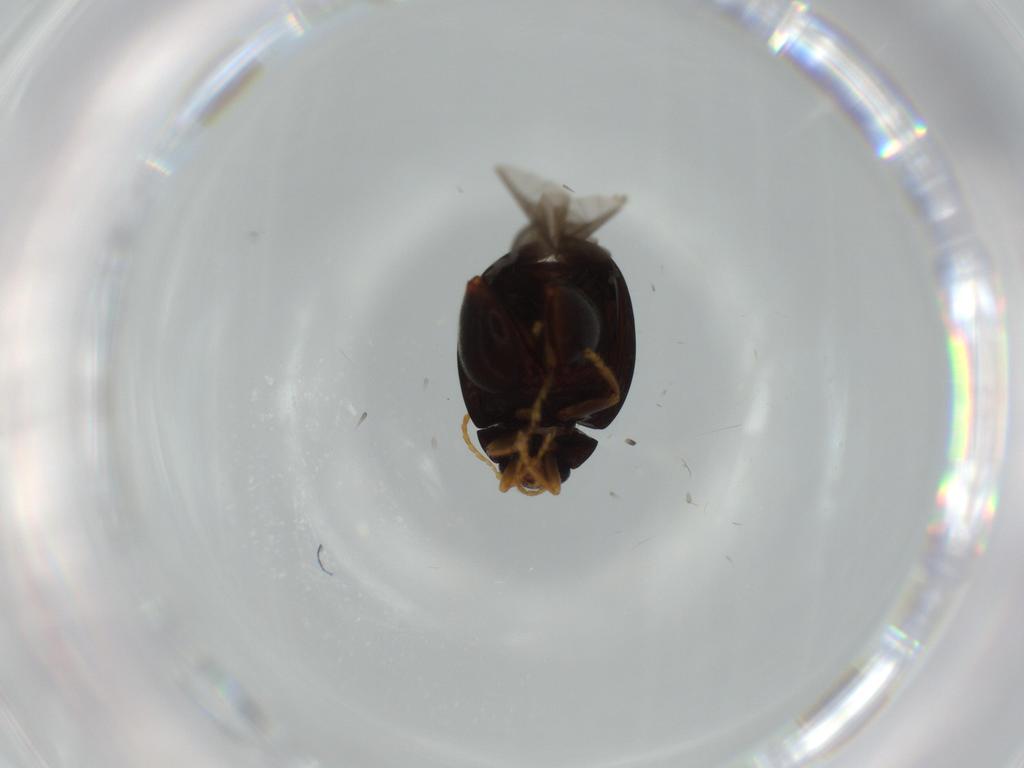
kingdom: Animalia
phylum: Arthropoda
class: Insecta
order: Coleoptera
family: Chrysomelidae
